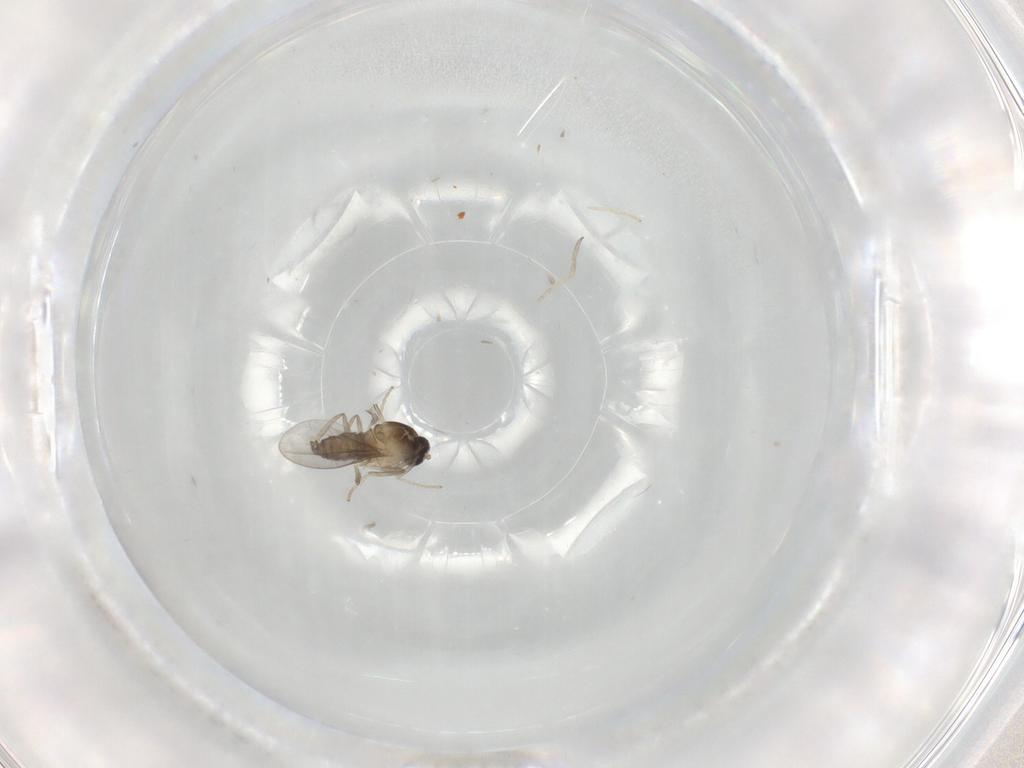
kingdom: Animalia
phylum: Arthropoda
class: Insecta
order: Diptera
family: Cecidomyiidae
